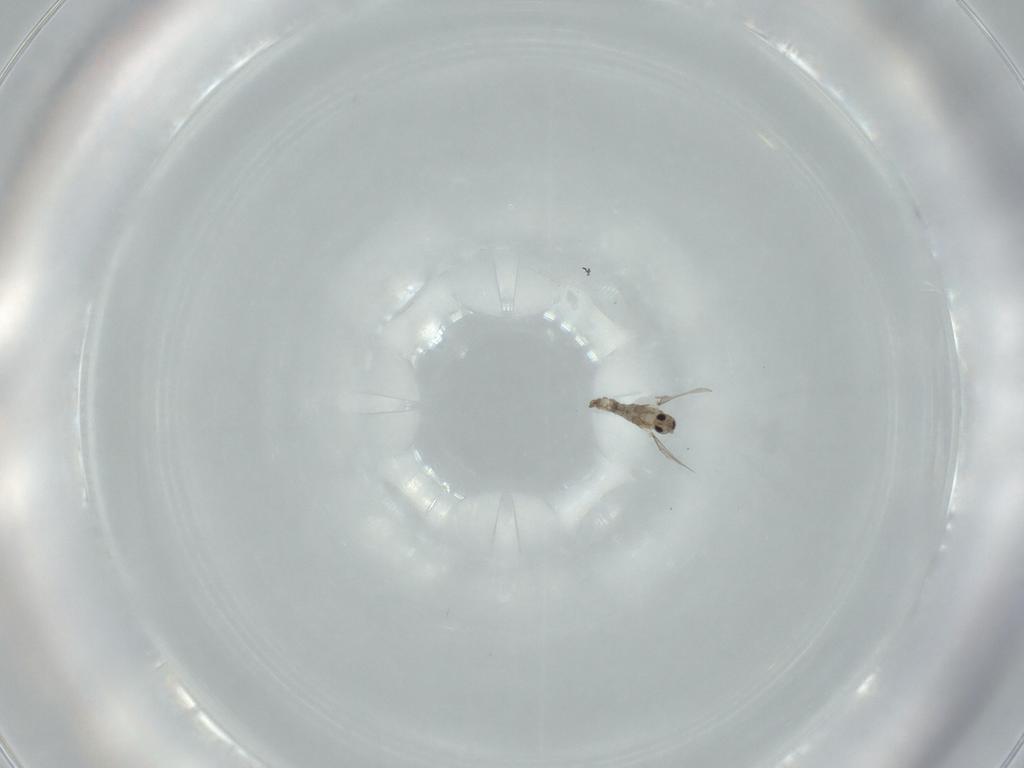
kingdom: Animalia
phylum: Arthropoda
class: Insecta
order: Diptera
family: Cecidomyiidae
